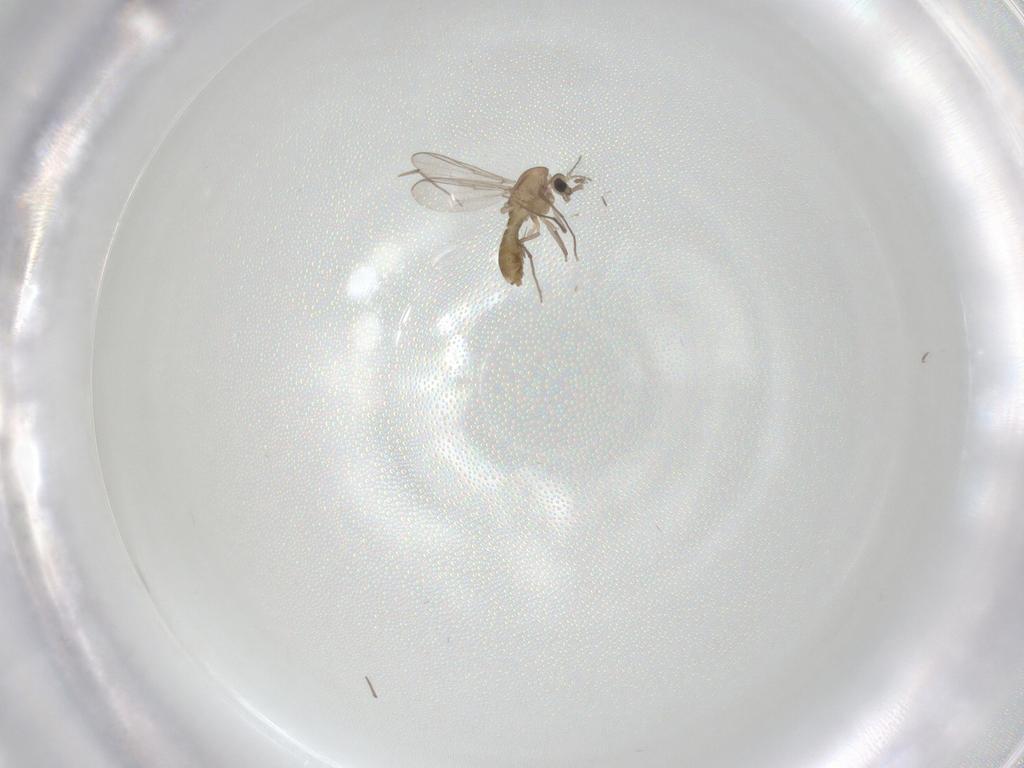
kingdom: Animalia
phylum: Arthropoda
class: Insecta
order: Diptera
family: Chironomidae
